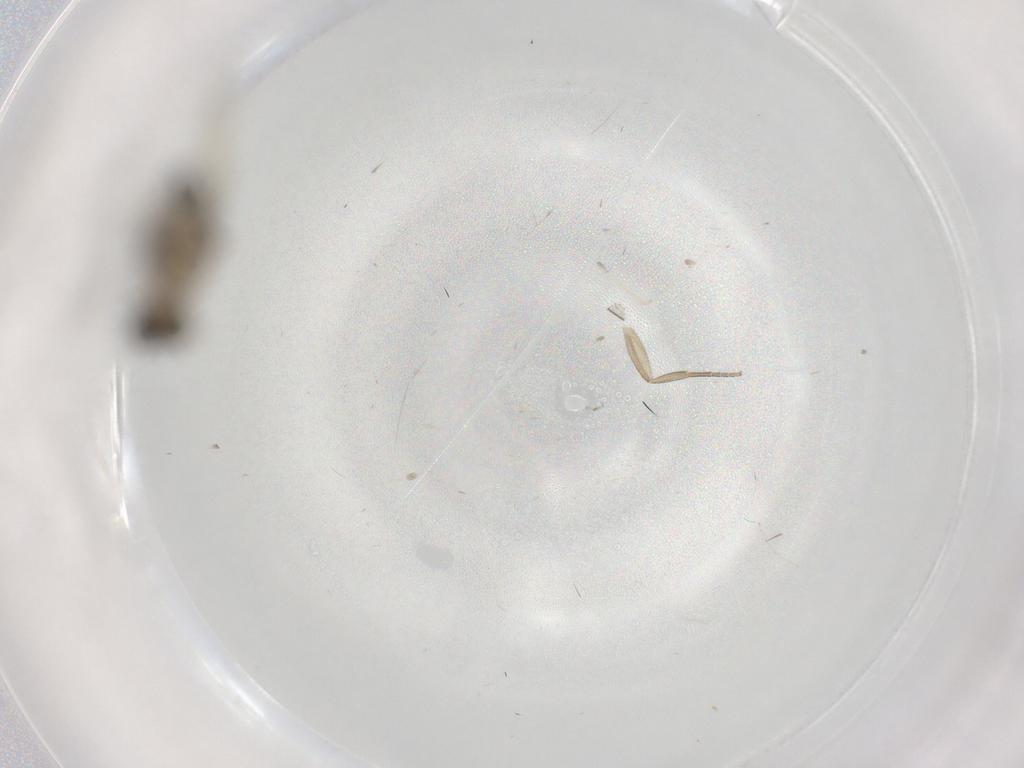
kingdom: Animalia
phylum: Arthropoda
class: Insecta
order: Diptera
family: Phoridae
